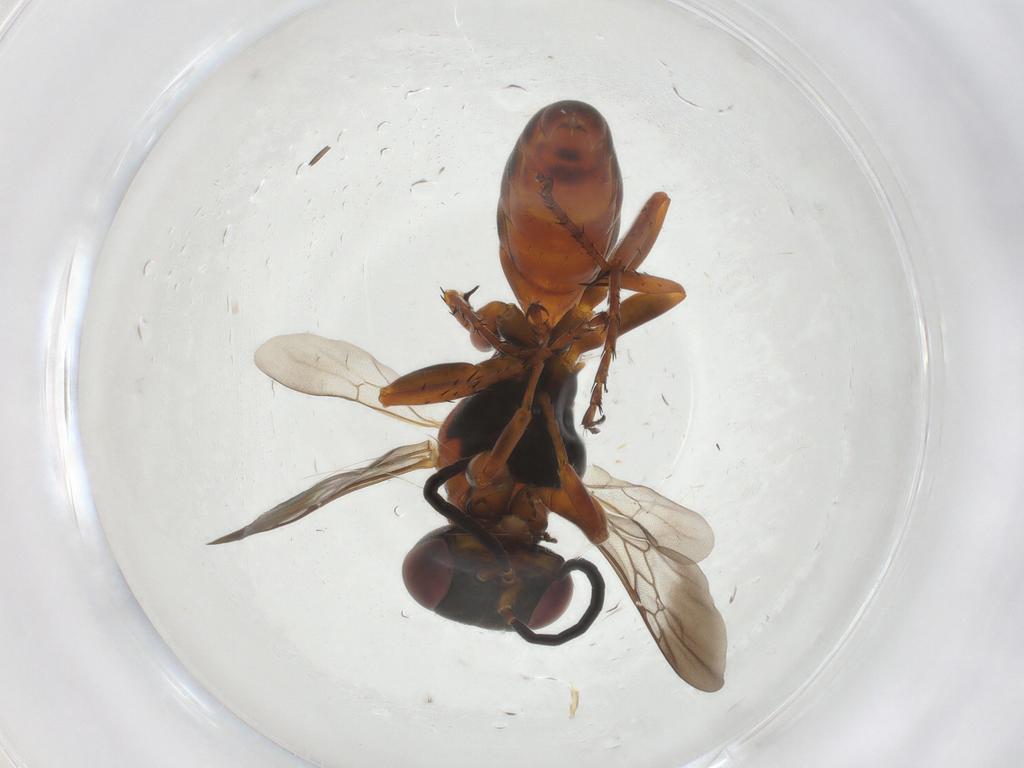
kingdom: Animalia
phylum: Arthropoda
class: Insecta
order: Hymenoptera
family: Crabronidae
